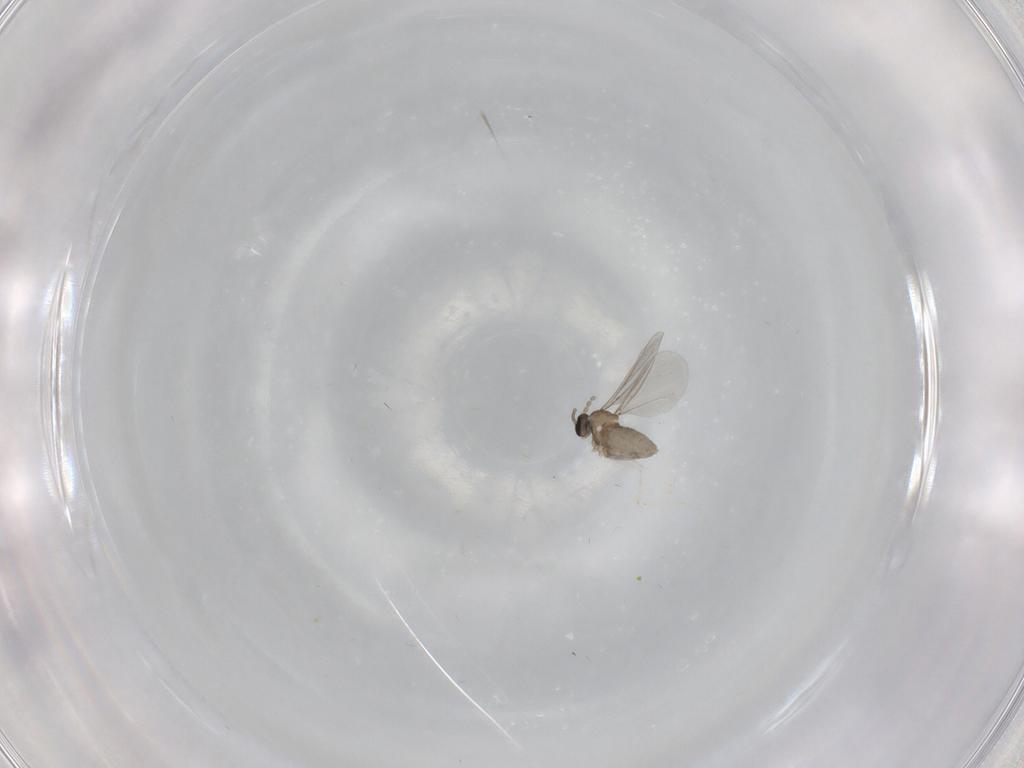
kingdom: Animalia
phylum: Arthropoda
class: Insecta
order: Diptera
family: Cecidomyiidae
